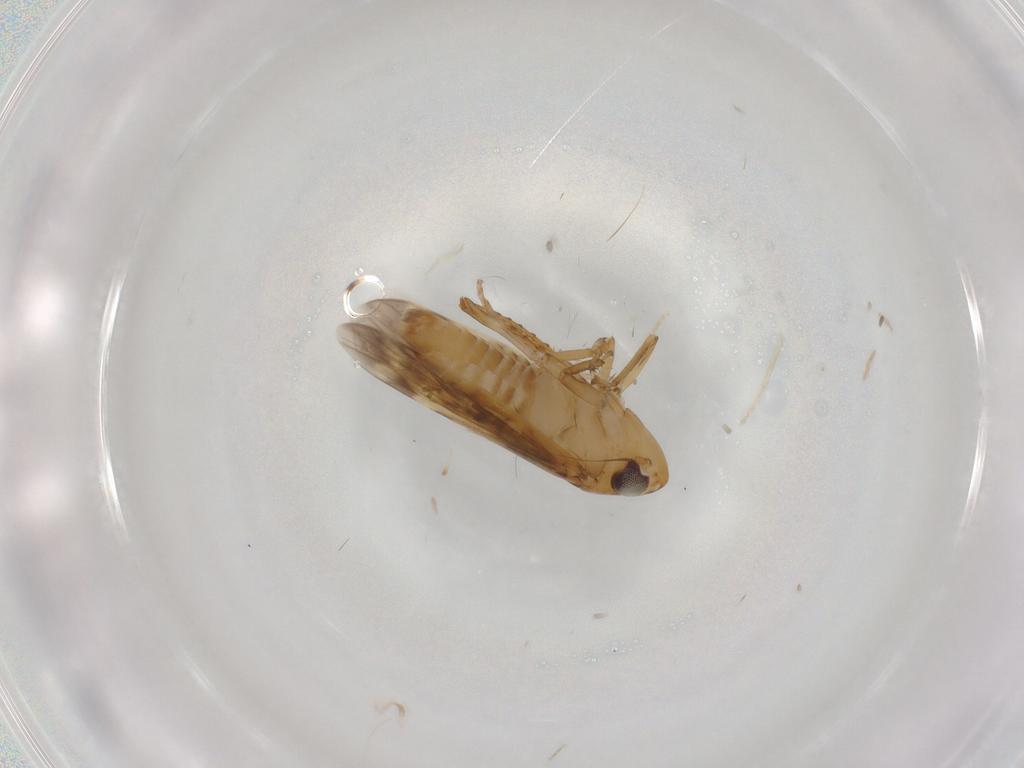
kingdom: Animalia
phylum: Arthropoda
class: Insecta
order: Hemiptera
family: Cicadellidae
